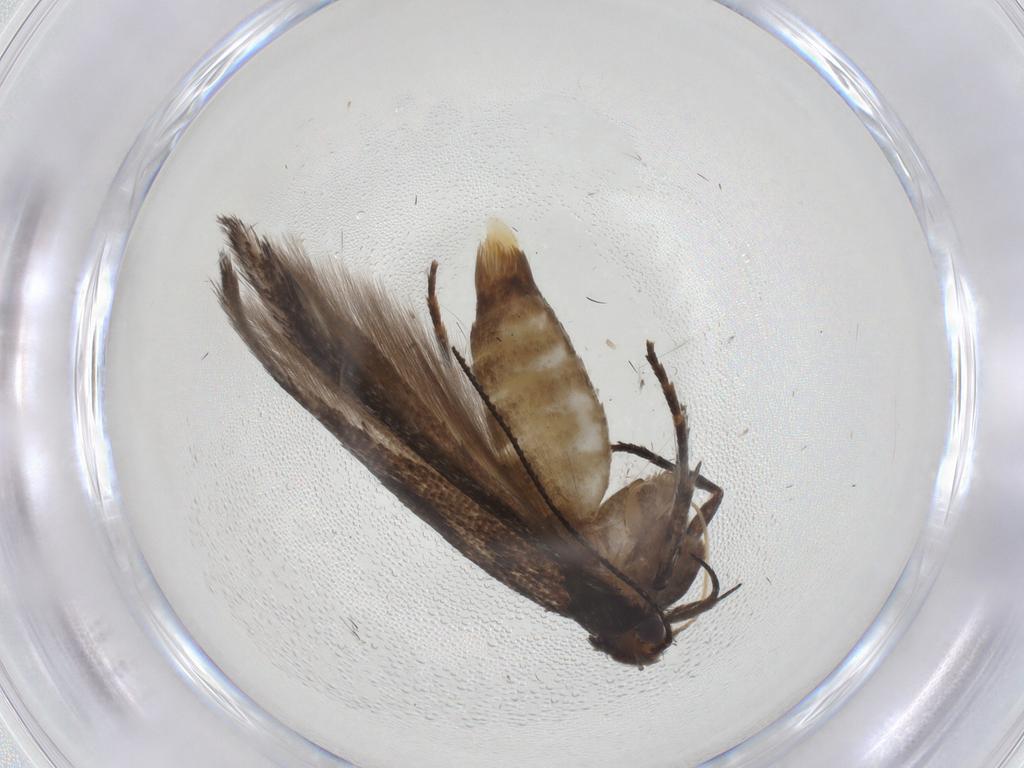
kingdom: Animalia
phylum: Arthropoda
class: Insecta
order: Lepidoptera
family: Gelechiidae
